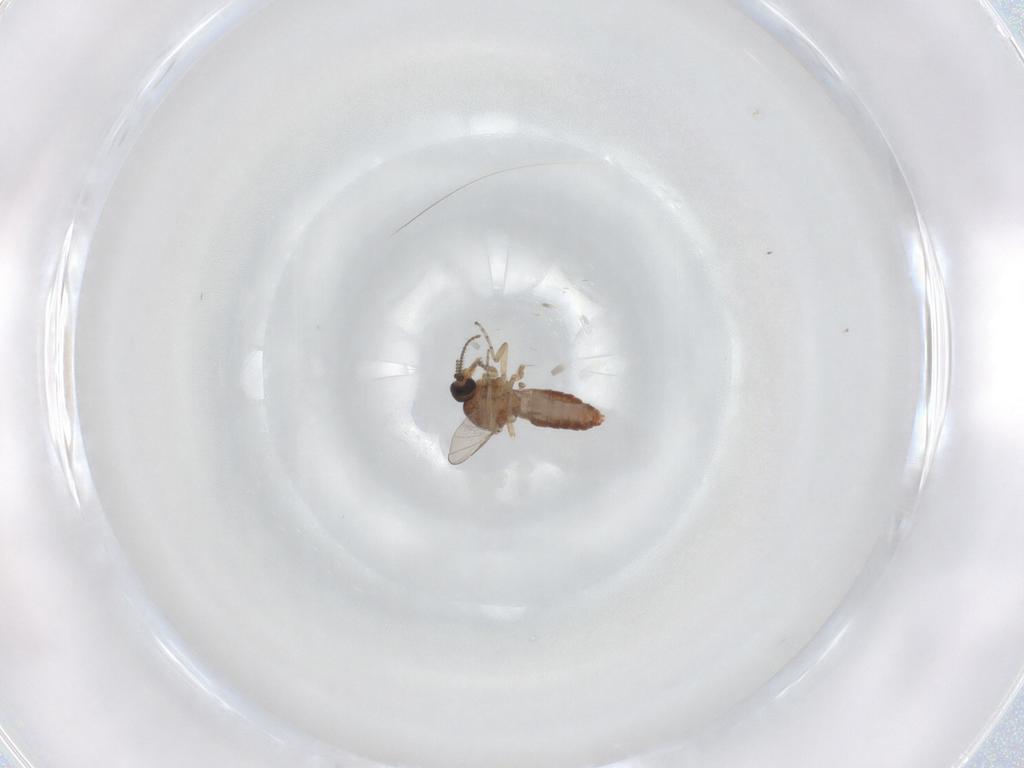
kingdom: Animalia
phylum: Arthropoda
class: Insecta
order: Diptera
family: Ceratopogonidae
